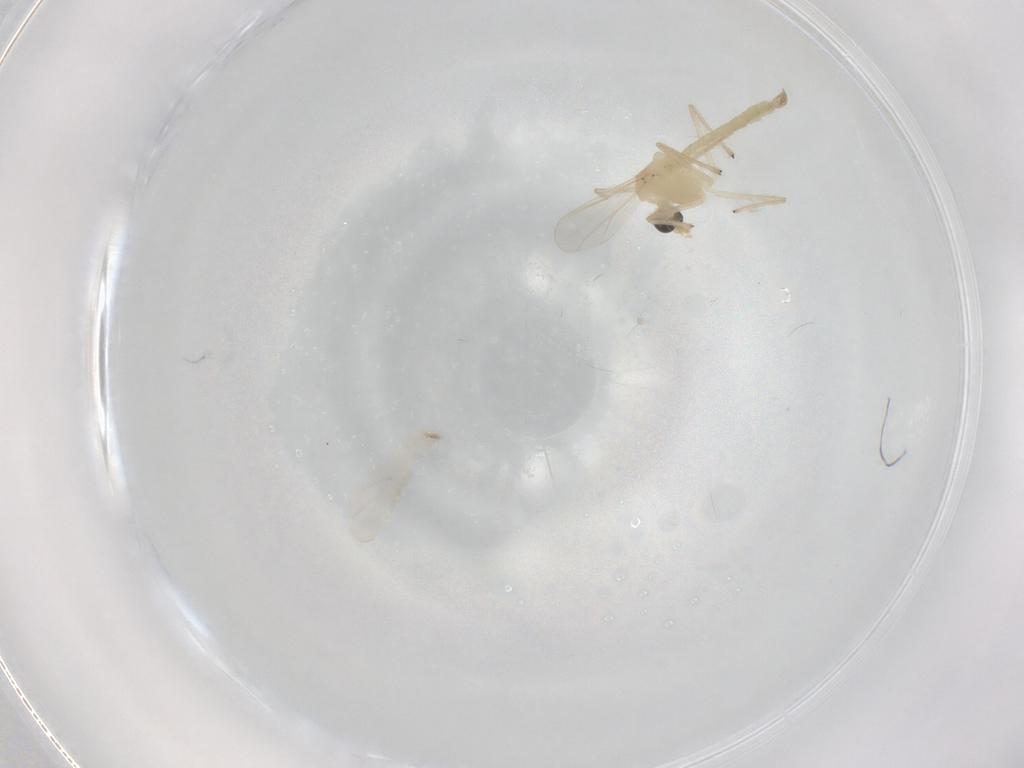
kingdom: Animalia
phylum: Arthropoda
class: Insecta
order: Diptera
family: Chironomidae
